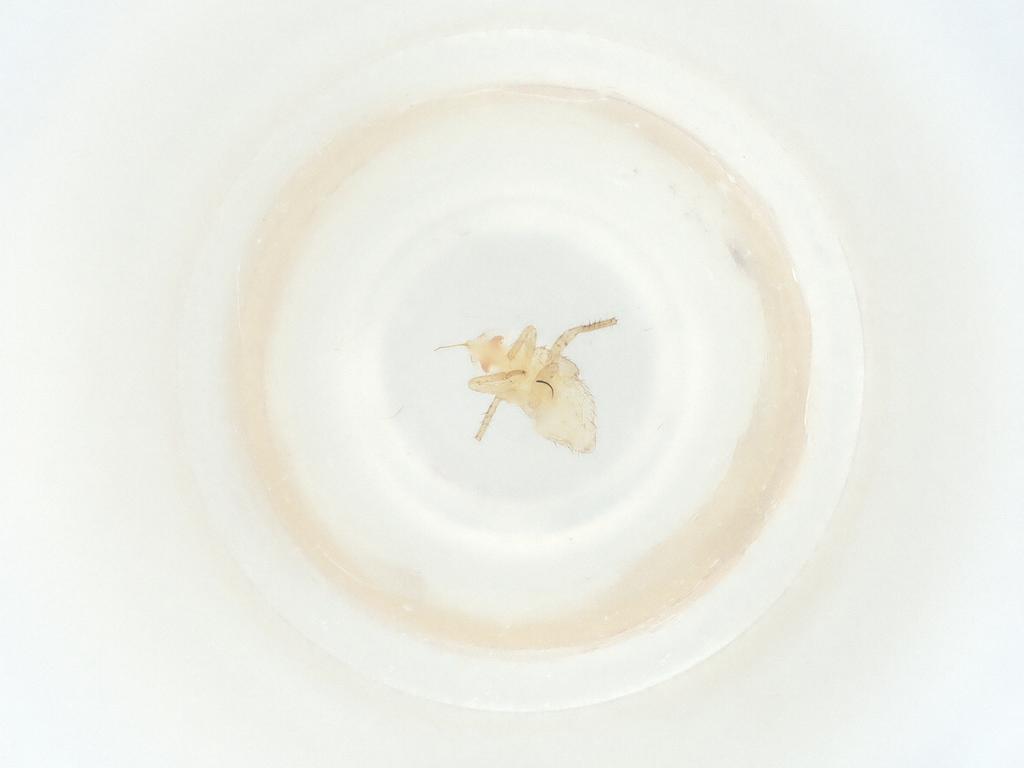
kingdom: Animalia
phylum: Arthropoda
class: Insecta
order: Hemiptera
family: Miridae
